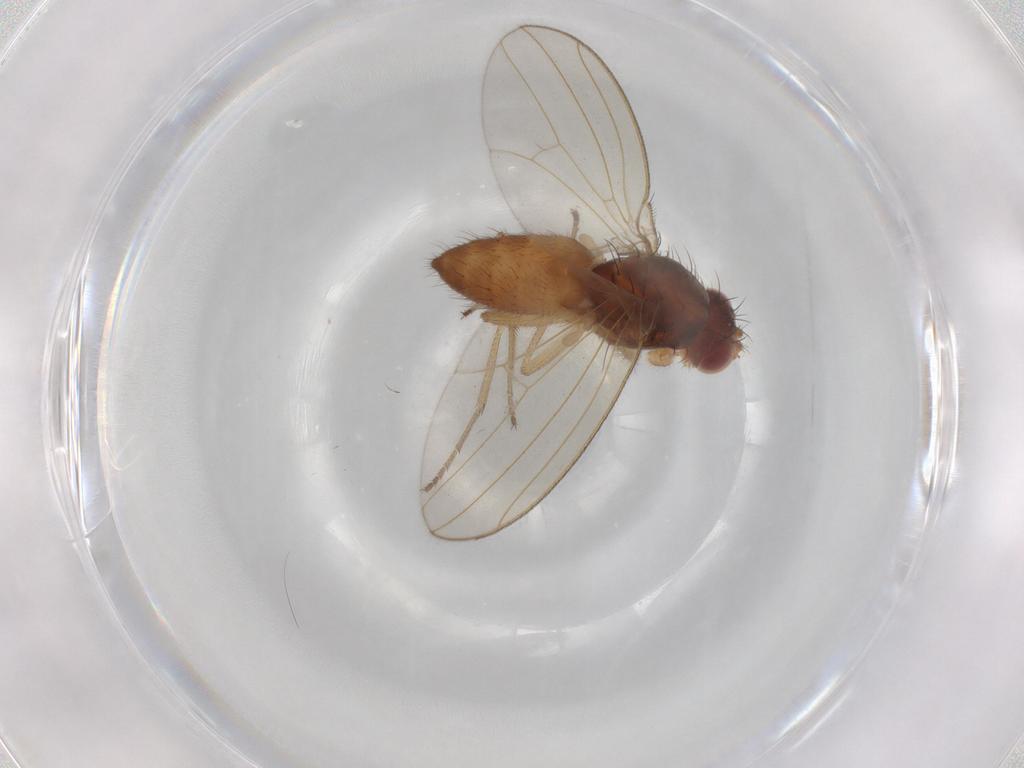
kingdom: Animalia
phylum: Arthropoda
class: Insecta
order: Diptera
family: Drosophilidae
